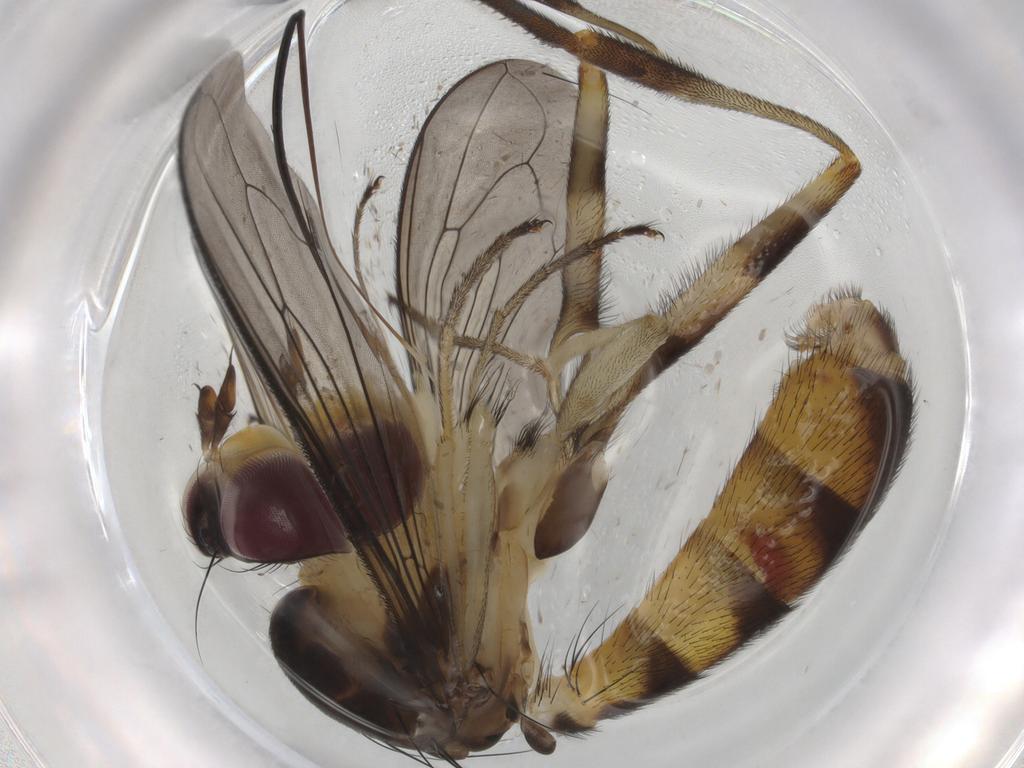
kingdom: Animalia
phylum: Arthropoda
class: Insecta
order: Diptera
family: Chironomidae
